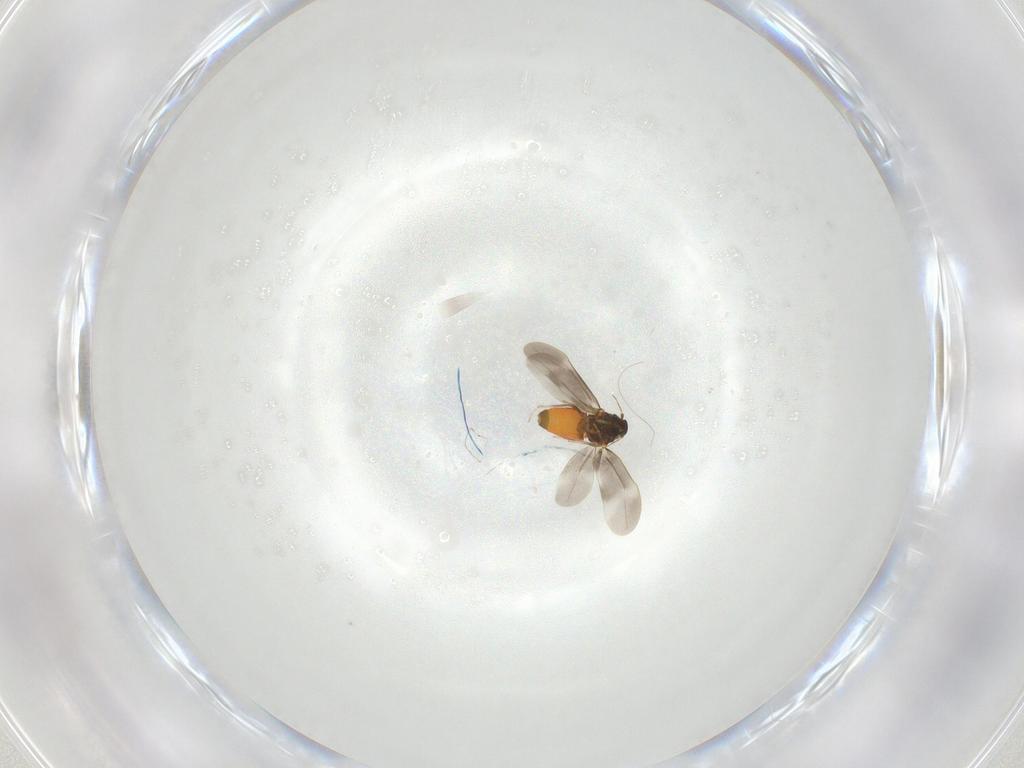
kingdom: Animalia
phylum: Arthropoda
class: Insecta
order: Hemiptera
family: Aleyrodidae
